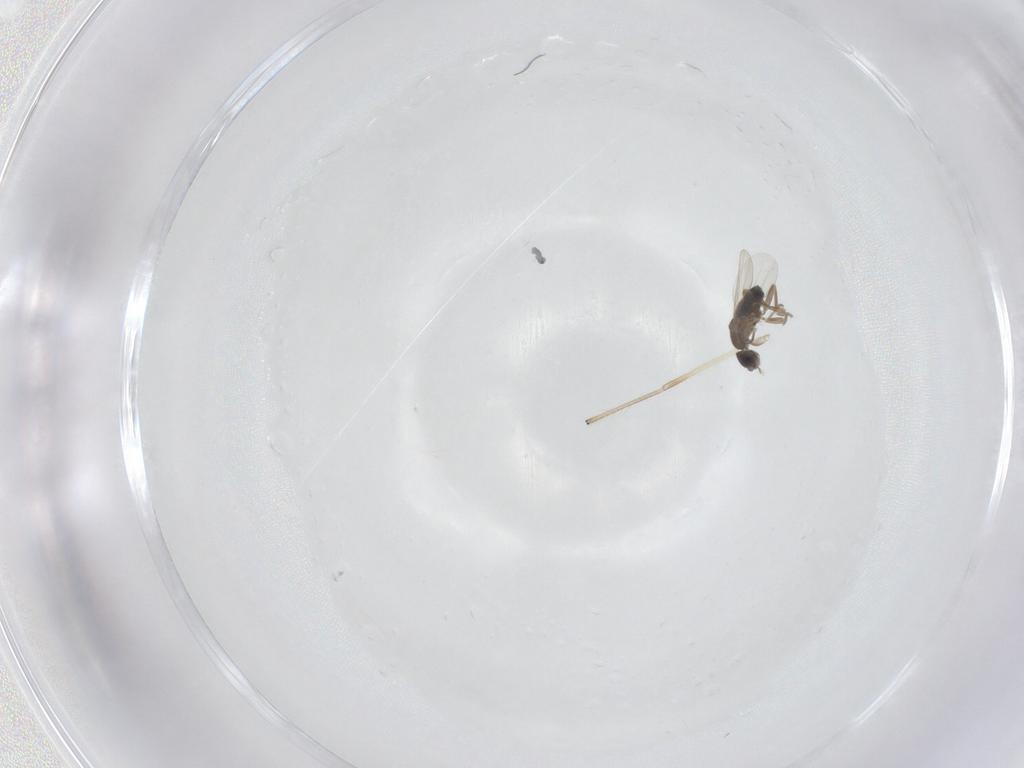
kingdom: Animalia
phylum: Arthropoda
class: Insecta
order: Diptera
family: Phoridae
